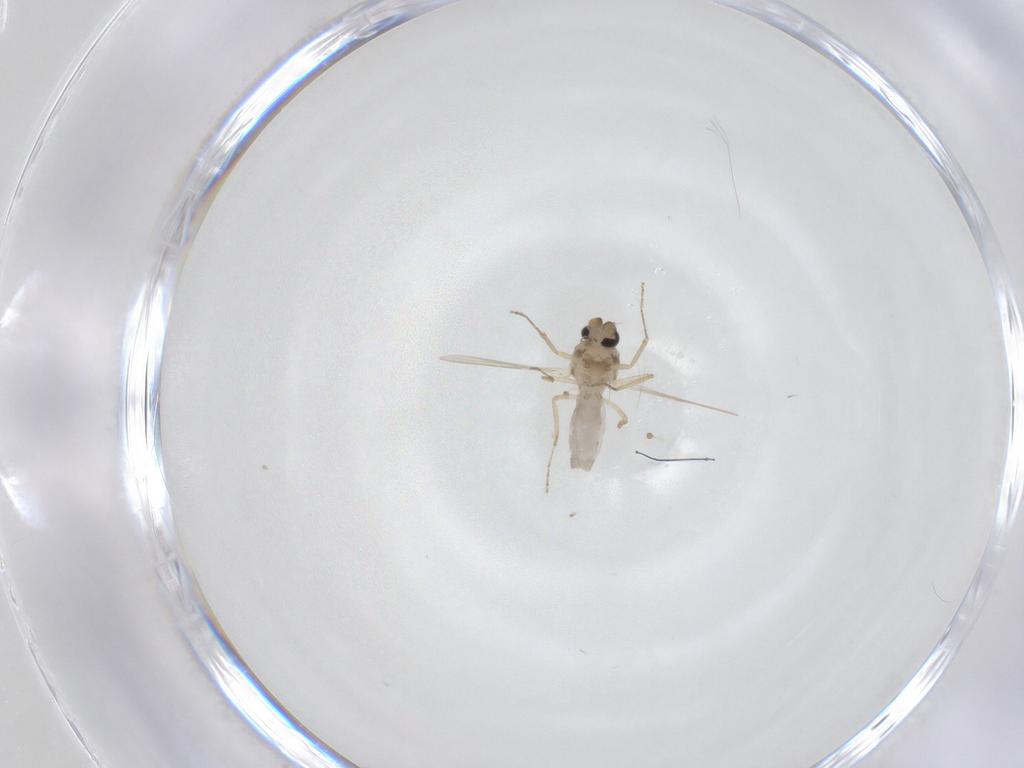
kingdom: Animalia
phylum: Arthropoda
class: Insecta
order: Diptera
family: Ceratopogonidae
